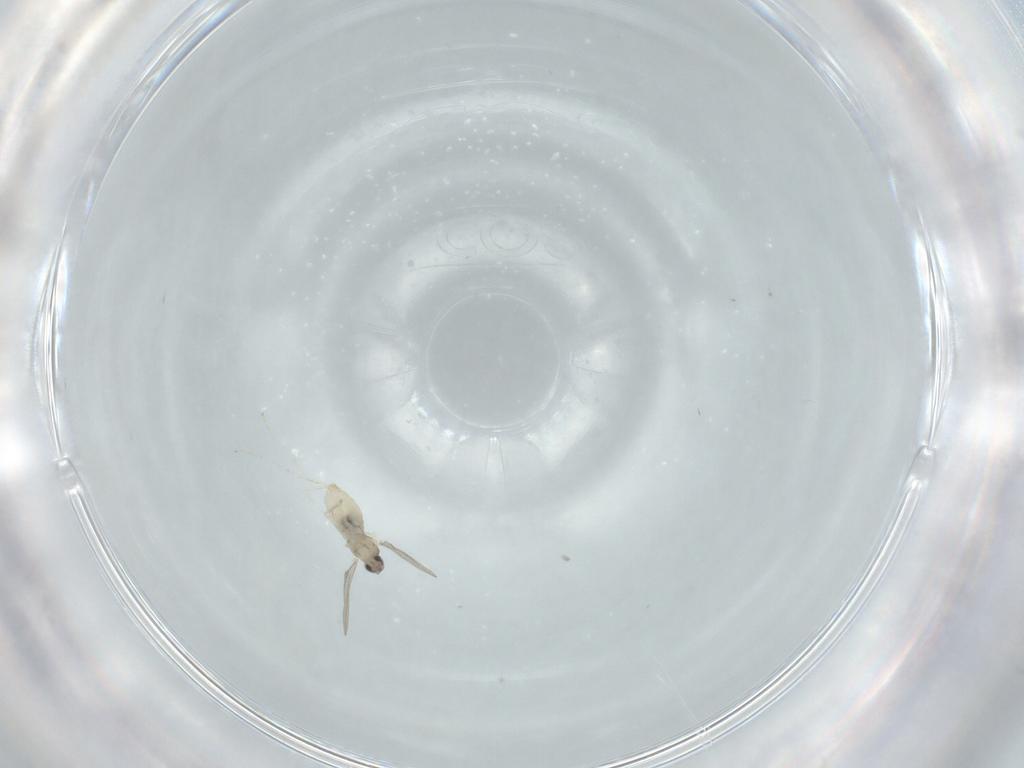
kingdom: Animalia
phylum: Arthropoda
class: Insecta
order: Diptera
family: Cecidomyiidae
